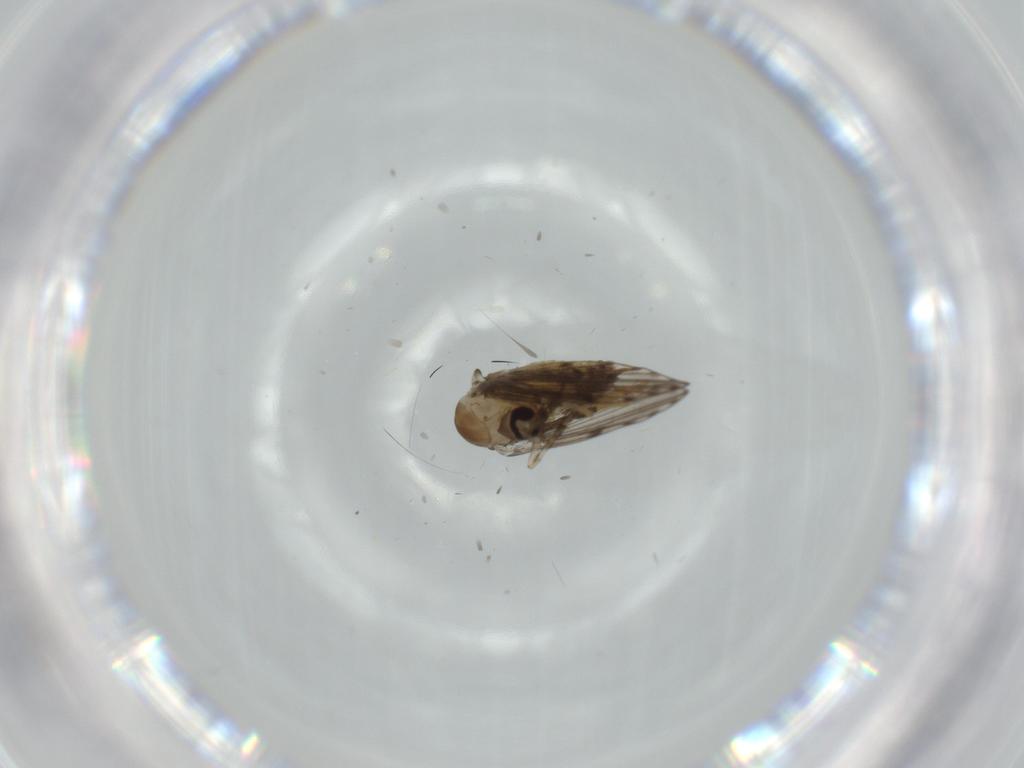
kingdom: Animalia
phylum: Arthropoda
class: Insecta
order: Diptera
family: Psychodidae
